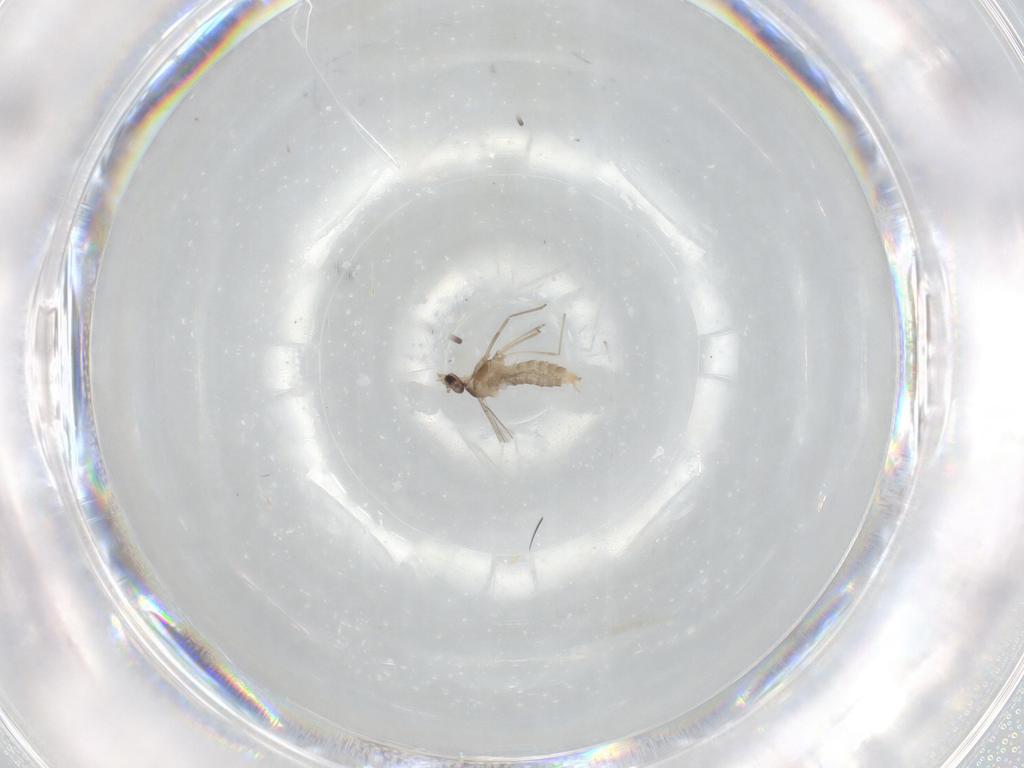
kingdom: Animalia
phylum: Arthropoda
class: Insecta
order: Diptera
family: Cecidomyiidae
